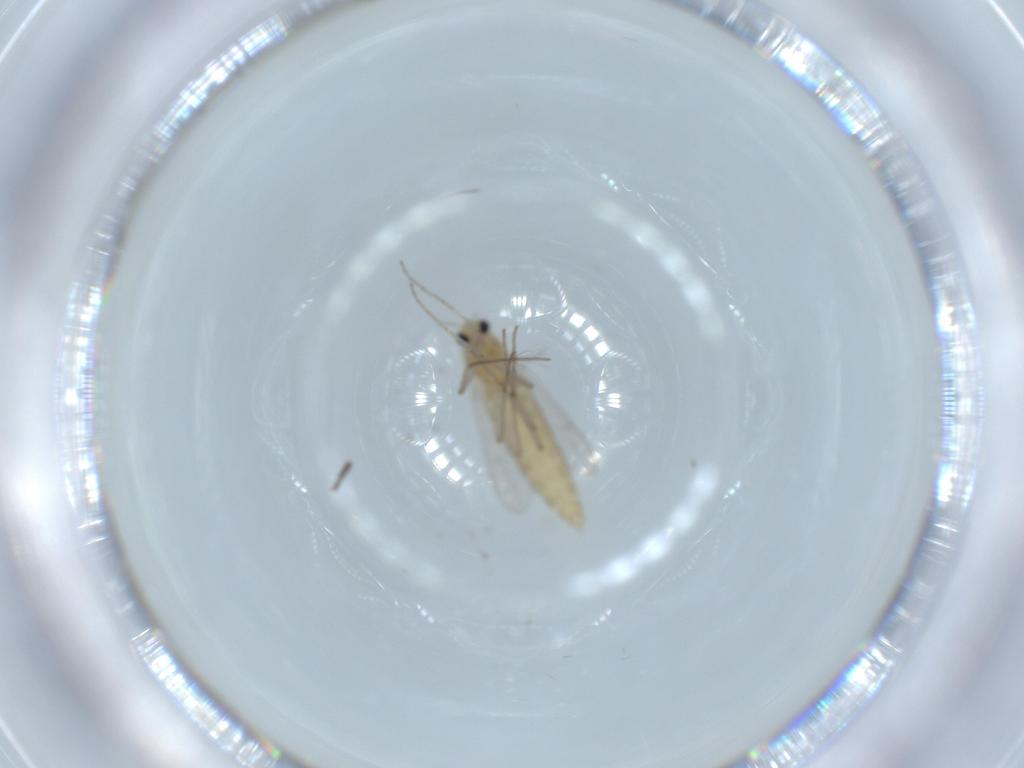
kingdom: Animalia
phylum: Arthropoda
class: Insecta
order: Diptera
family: Chironomidae
